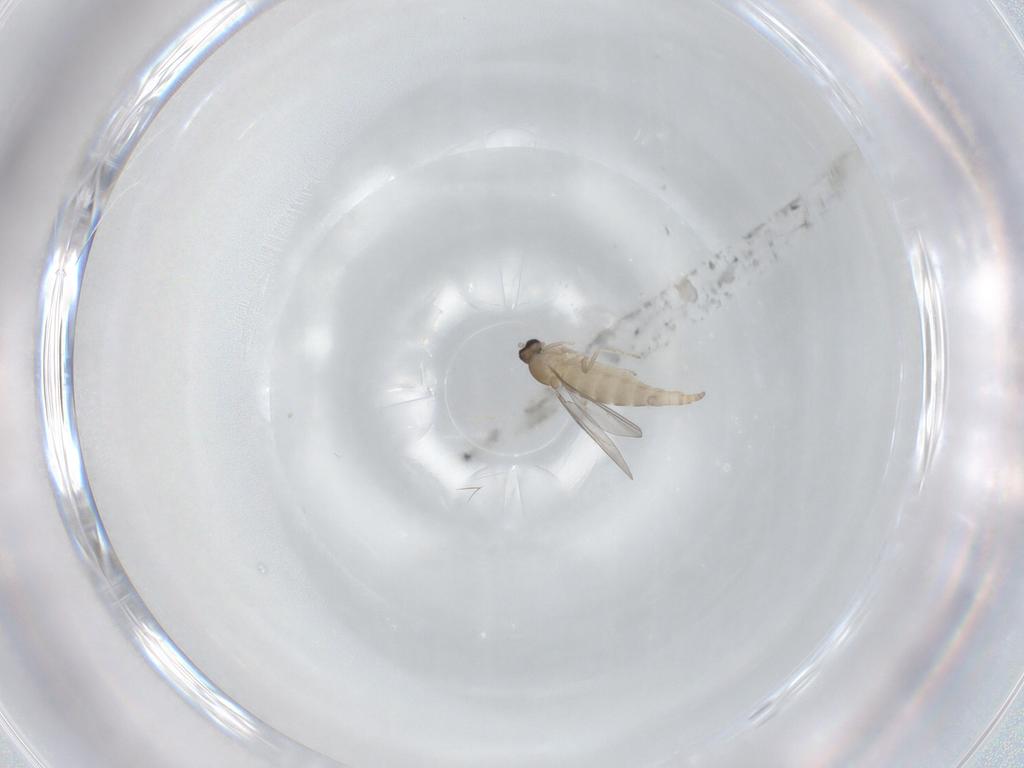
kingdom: Animalia
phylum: Arthropoda
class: Insecta
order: Diptera
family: Cecidomyiidae
